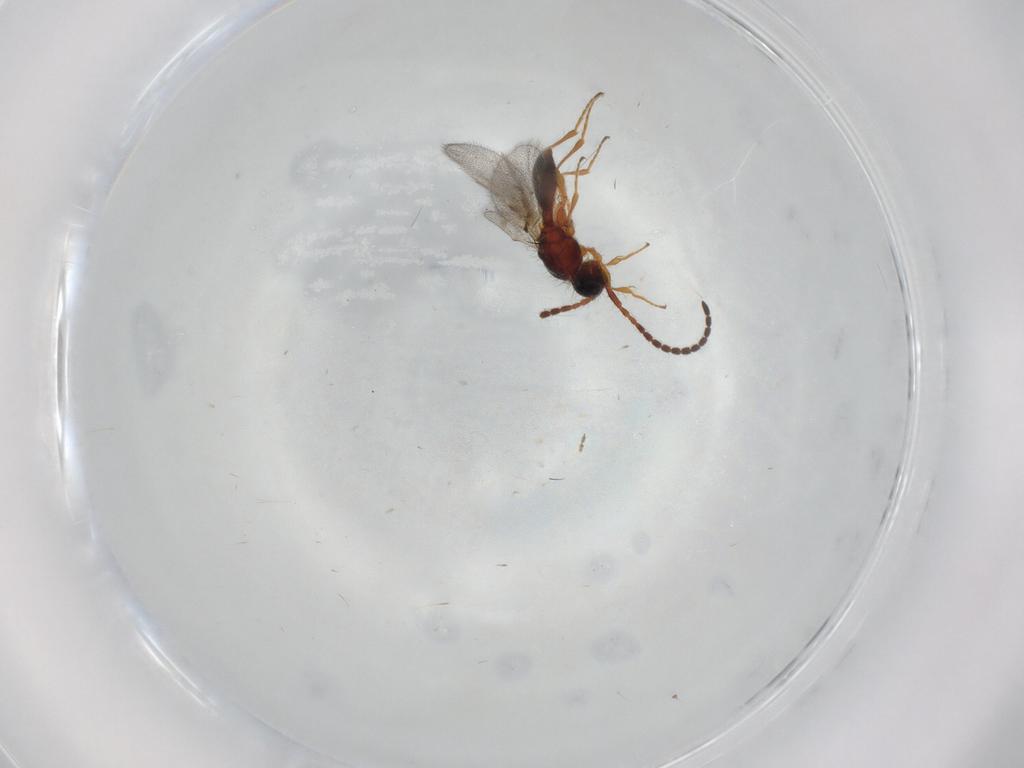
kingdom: Animalia
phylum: Arthropoda
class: Insecta
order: Hymenoptera
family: Diapriidae
